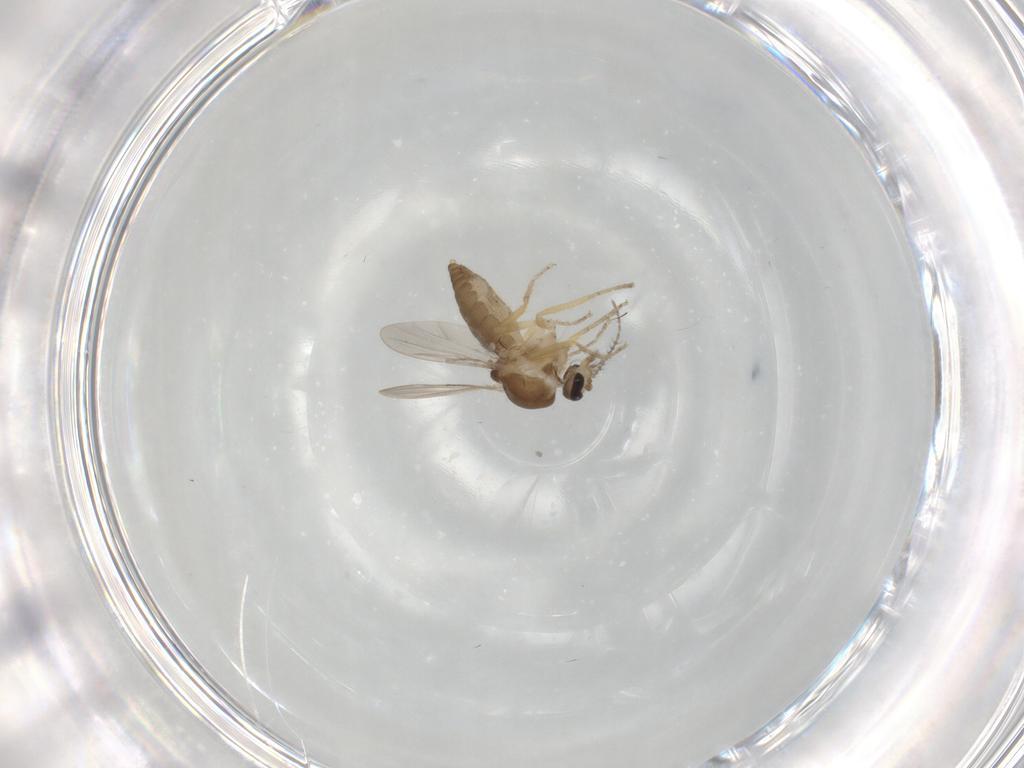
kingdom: Animalia
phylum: Arthropoda
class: Insecta
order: Diptera
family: Ceratopogonidae
